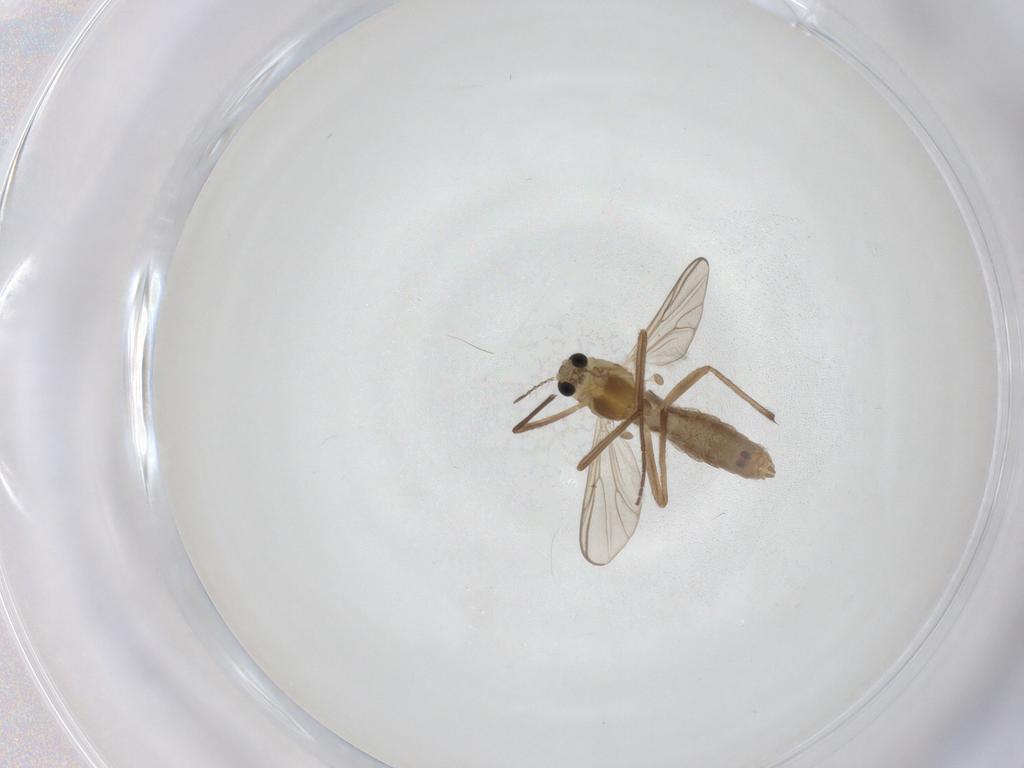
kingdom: Animalia
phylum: Arthropoda
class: Insecta
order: Diptera
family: Chironomidae
